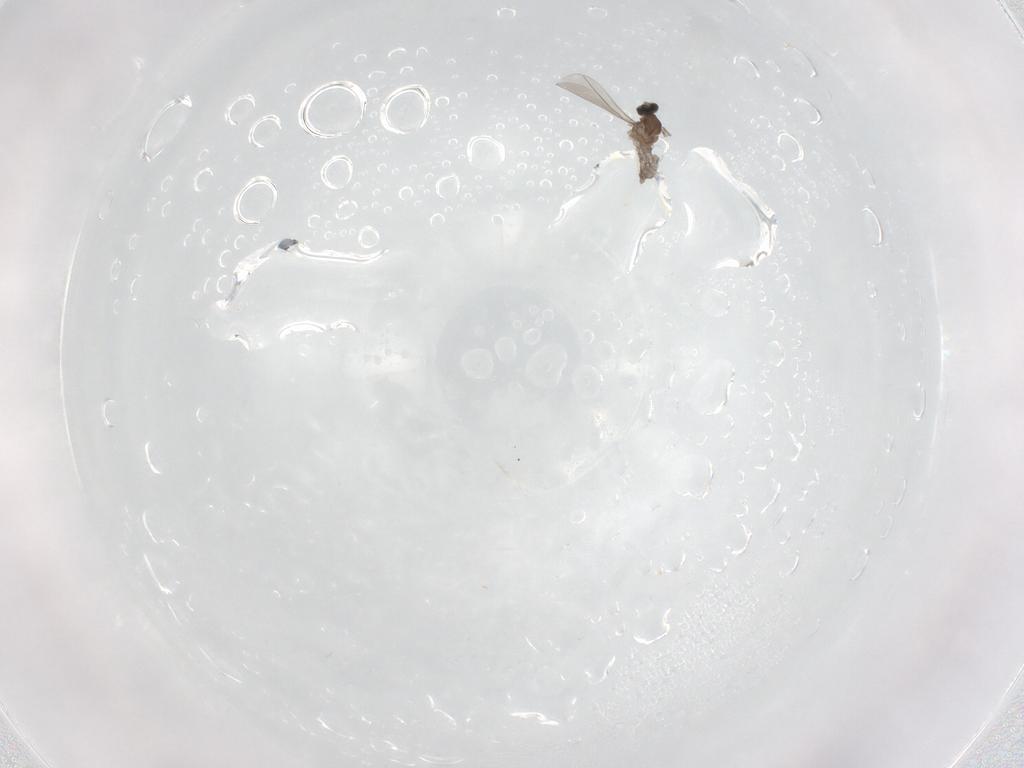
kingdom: Animalia
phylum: Arthropoda
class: Insecta
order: Diptera
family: Cecidomyiidae
